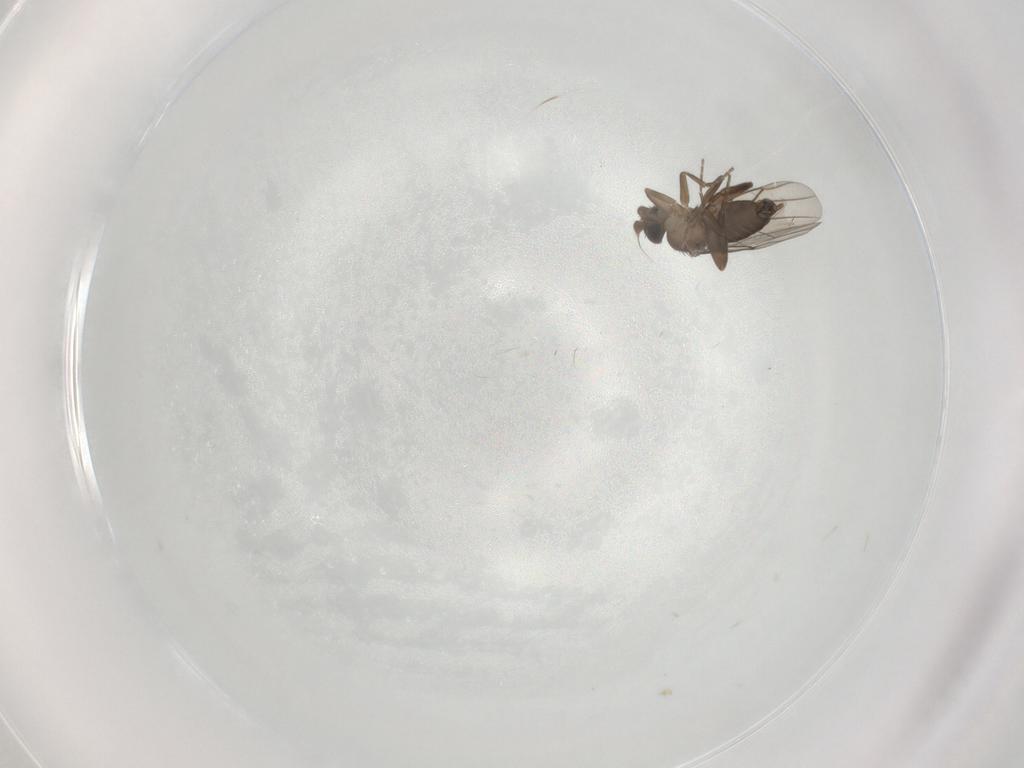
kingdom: Animalia
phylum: Arthropoda
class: Insecta
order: Diptera
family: Phoridae
